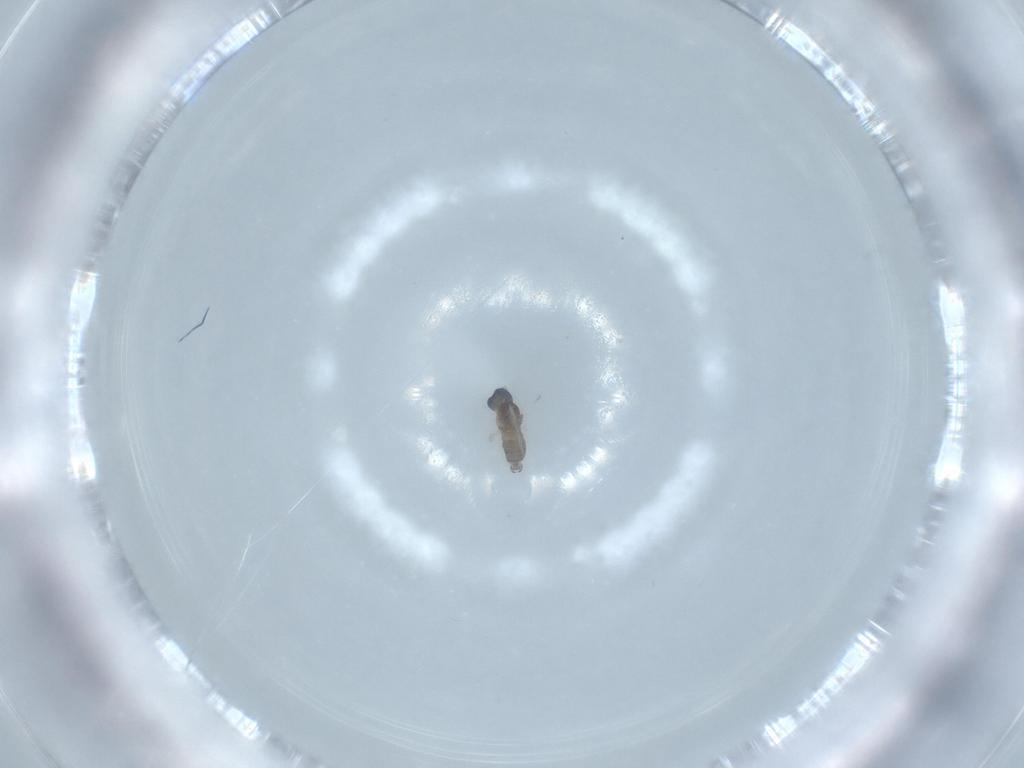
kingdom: Animalia
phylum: Arthropoda
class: Insecta
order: Diptera
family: Cecidomyiidae
